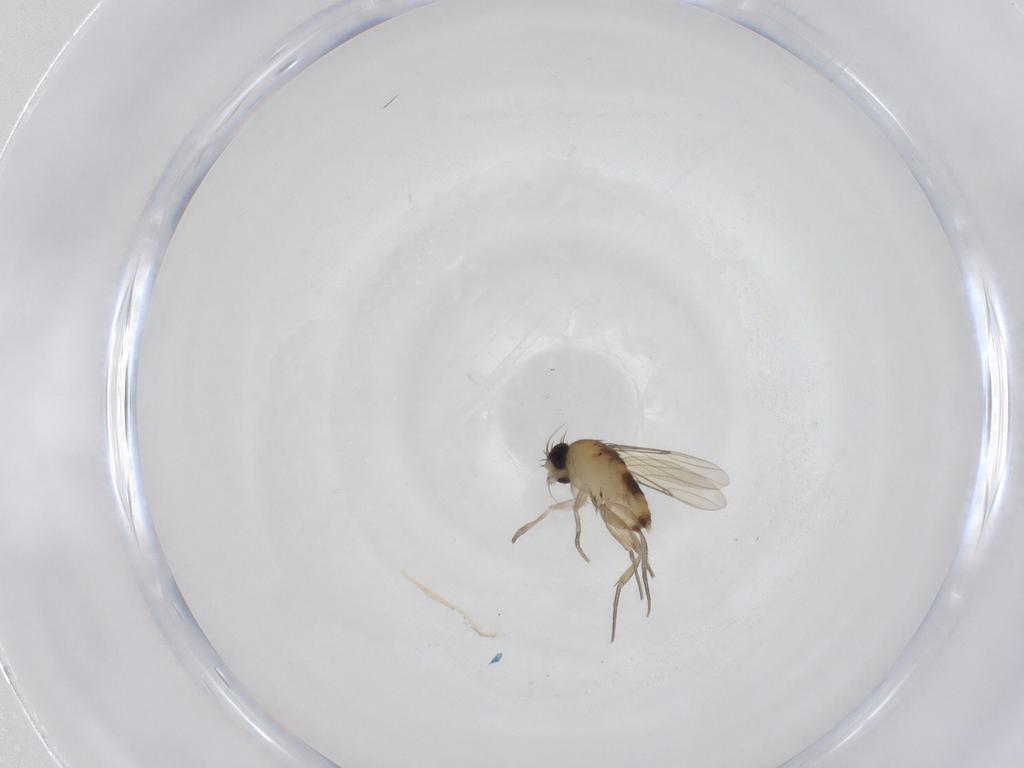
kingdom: Animalia
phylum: Arthropoda
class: Insecta
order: Diptera
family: Phoridae
